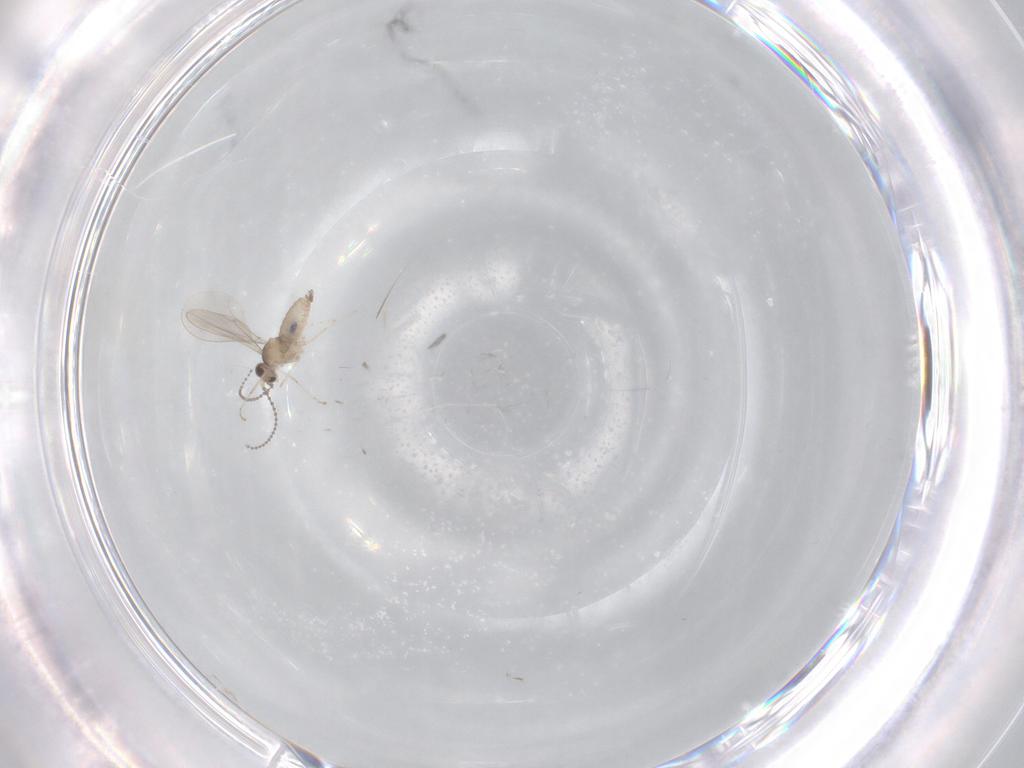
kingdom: Animalia
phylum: Arthropoda
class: Insecta
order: Diptera
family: Cecidomyiidae
